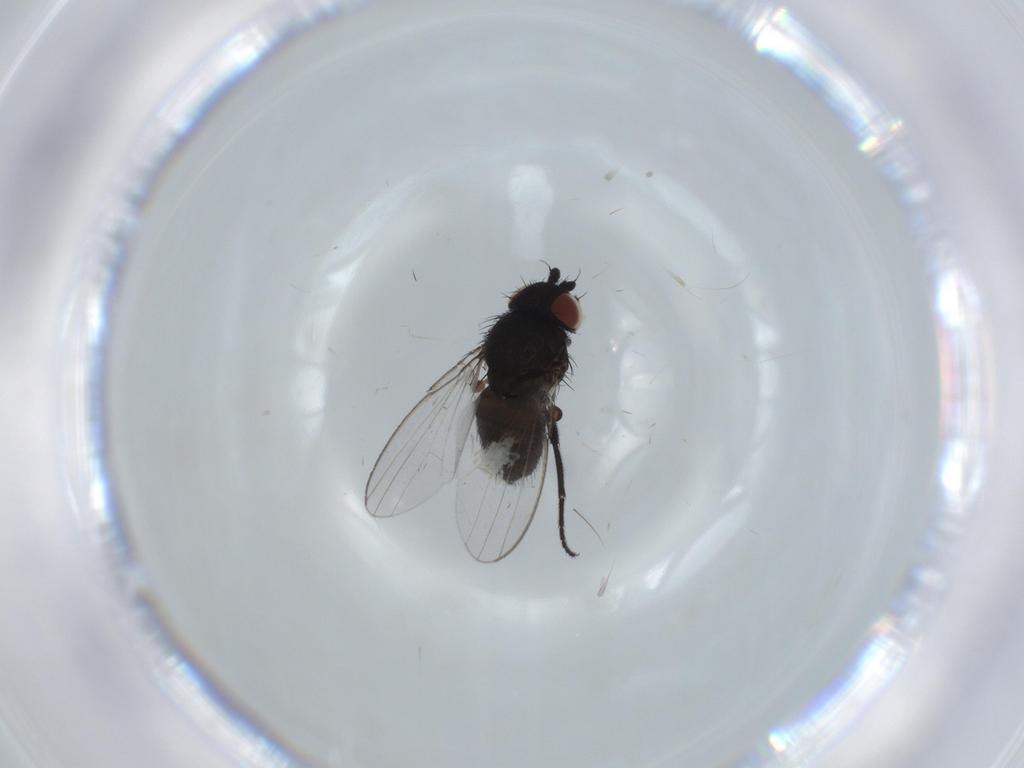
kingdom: Animalia
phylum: Arthropoda
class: Insecta
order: Diptera
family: Milichiidae
